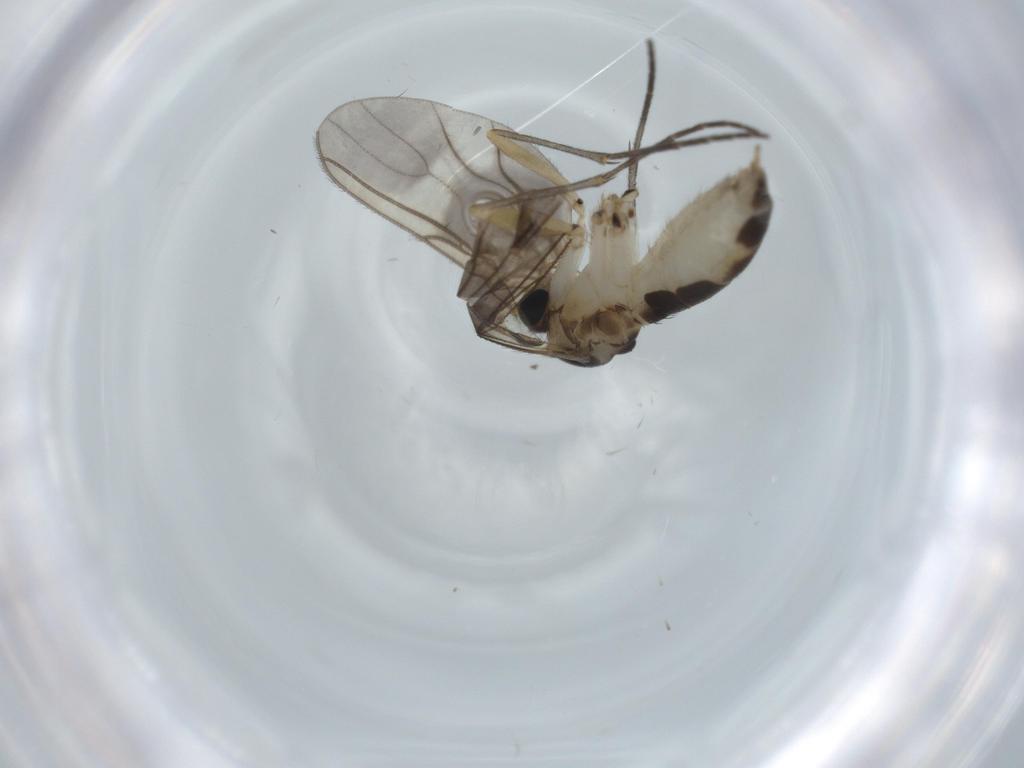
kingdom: Animalia
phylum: Arthropoda
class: Insecta
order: Diptera
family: Sciaridae
